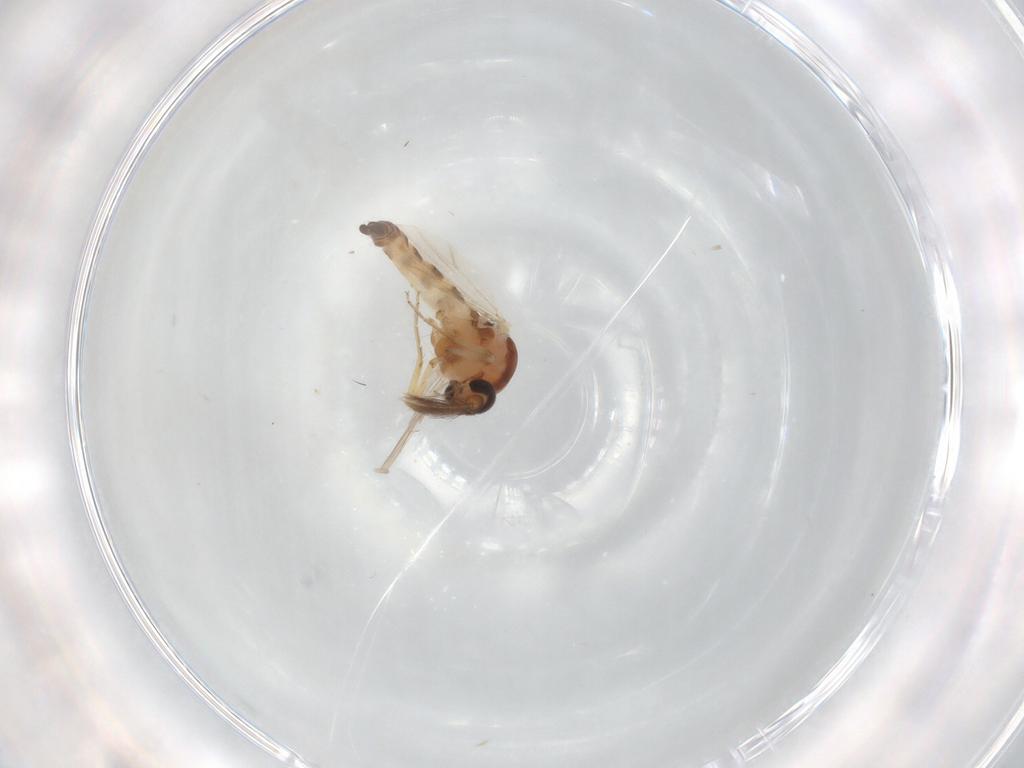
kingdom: Animalia
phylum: Arthropoda
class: Insecta
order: Diptera
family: Ceratopogonidae
